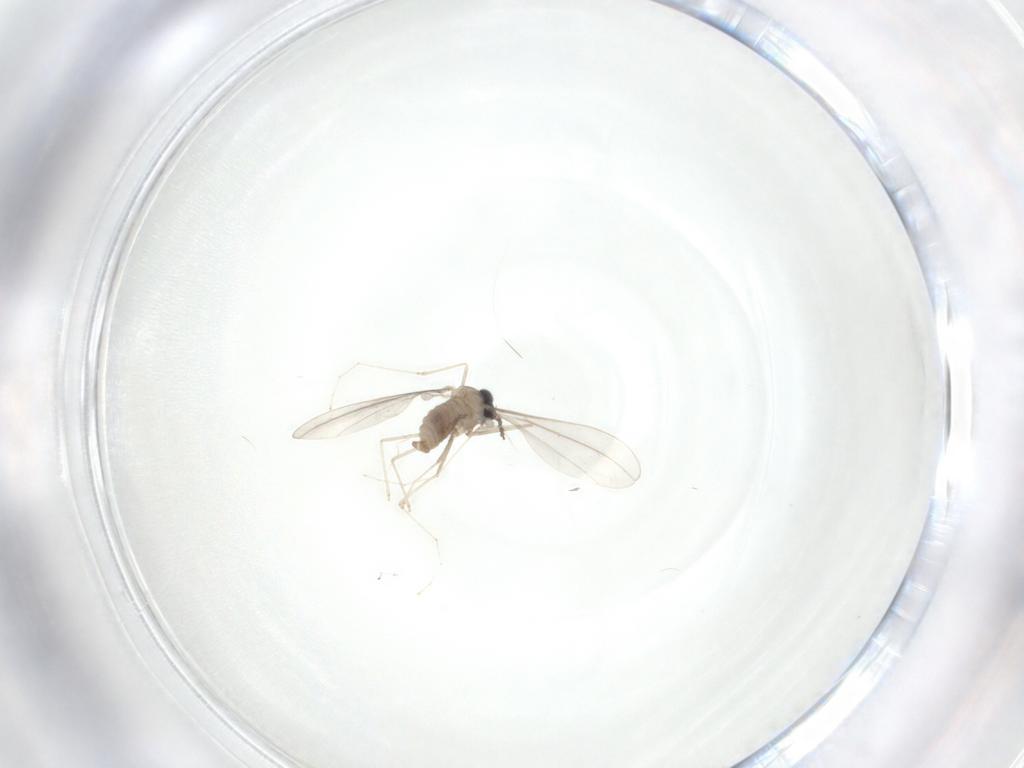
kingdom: Animalia
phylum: Arthropoda
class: Insecta
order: Diptera
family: Cecidomyiidae
